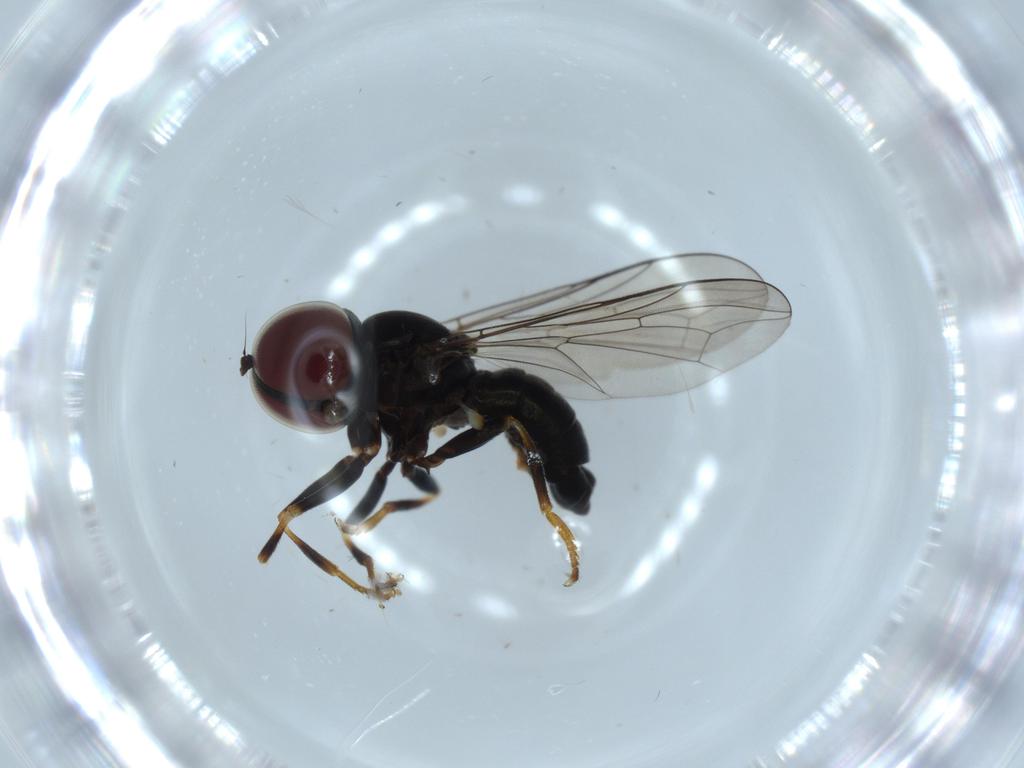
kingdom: Animalia
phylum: Arthropoda
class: Insecta
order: Diptera
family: Pipunculidae
